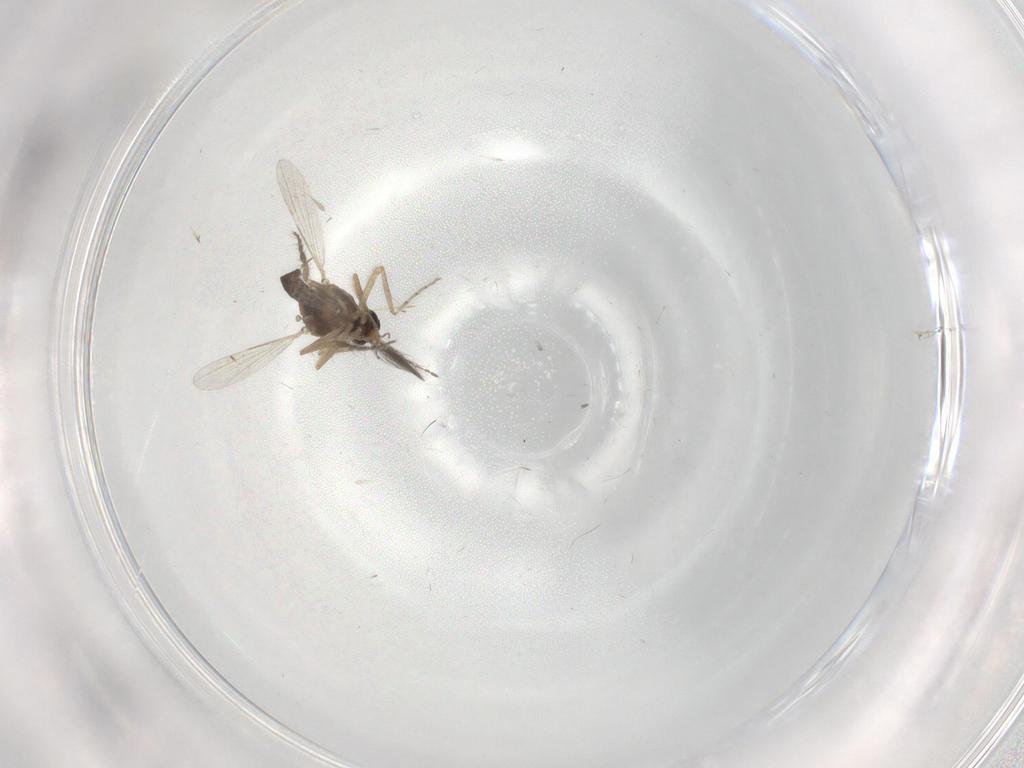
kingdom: Animalia
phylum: Arthropoda
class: Insecta
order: Diptera
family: Ceratopogonidae
